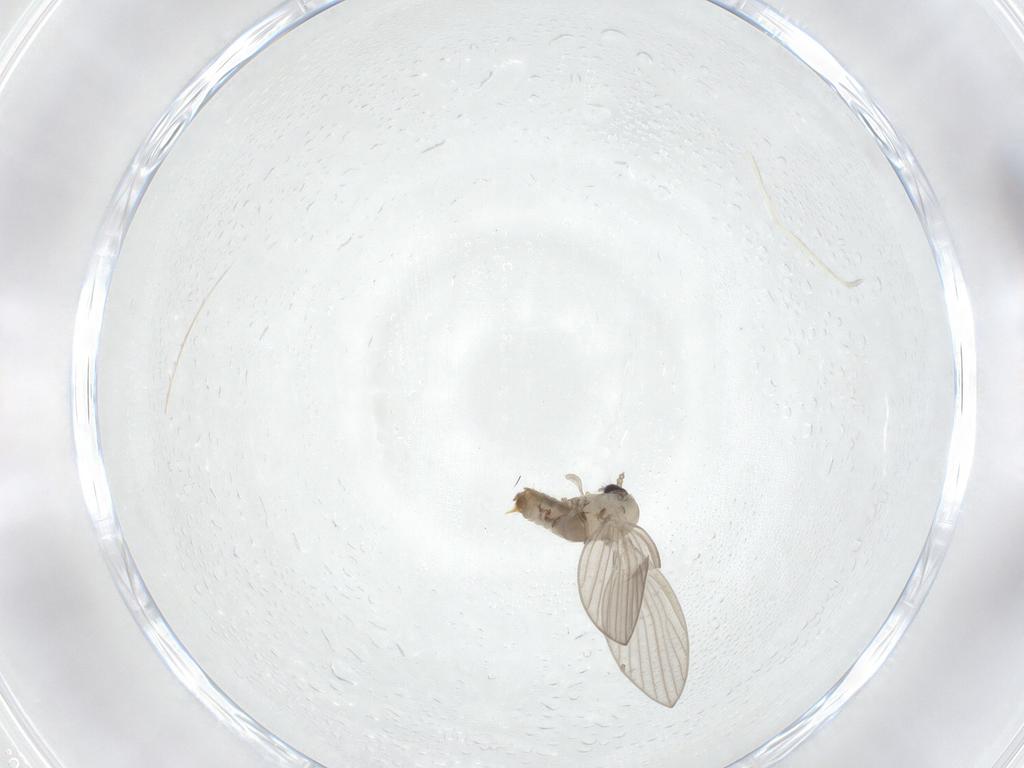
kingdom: Animalia
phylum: Arthropoda
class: Insecta
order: Diptera
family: Psychodidae
